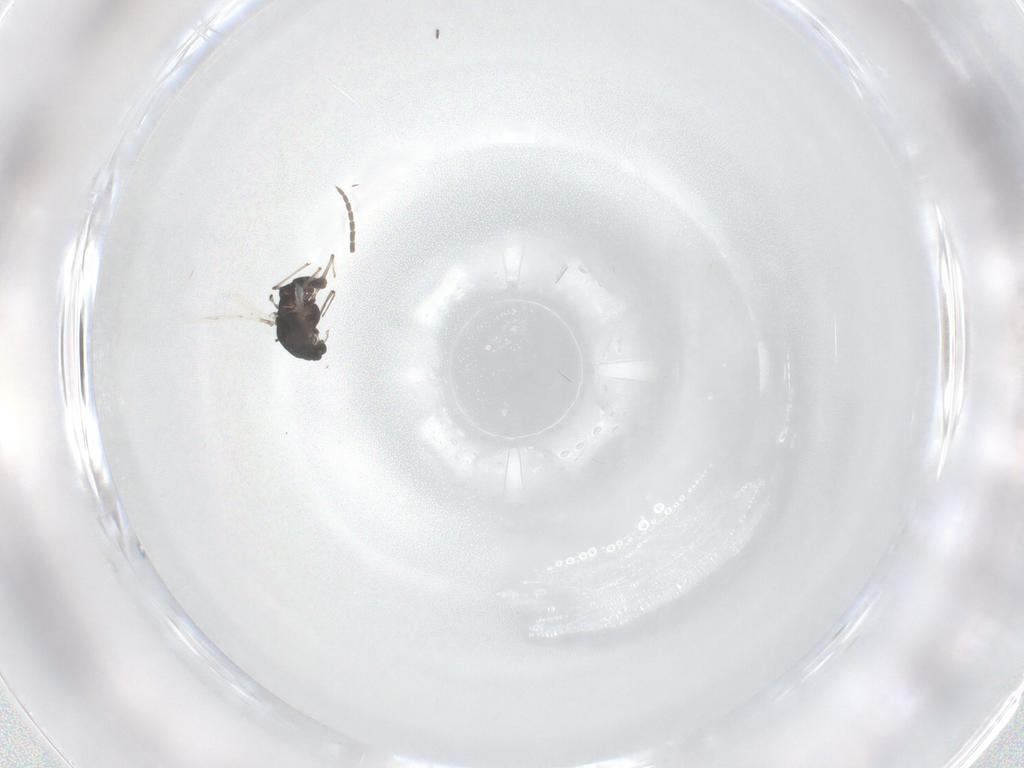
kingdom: Animalia
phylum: Arthropoda
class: Insecta
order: Diptera
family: Chironomidae
